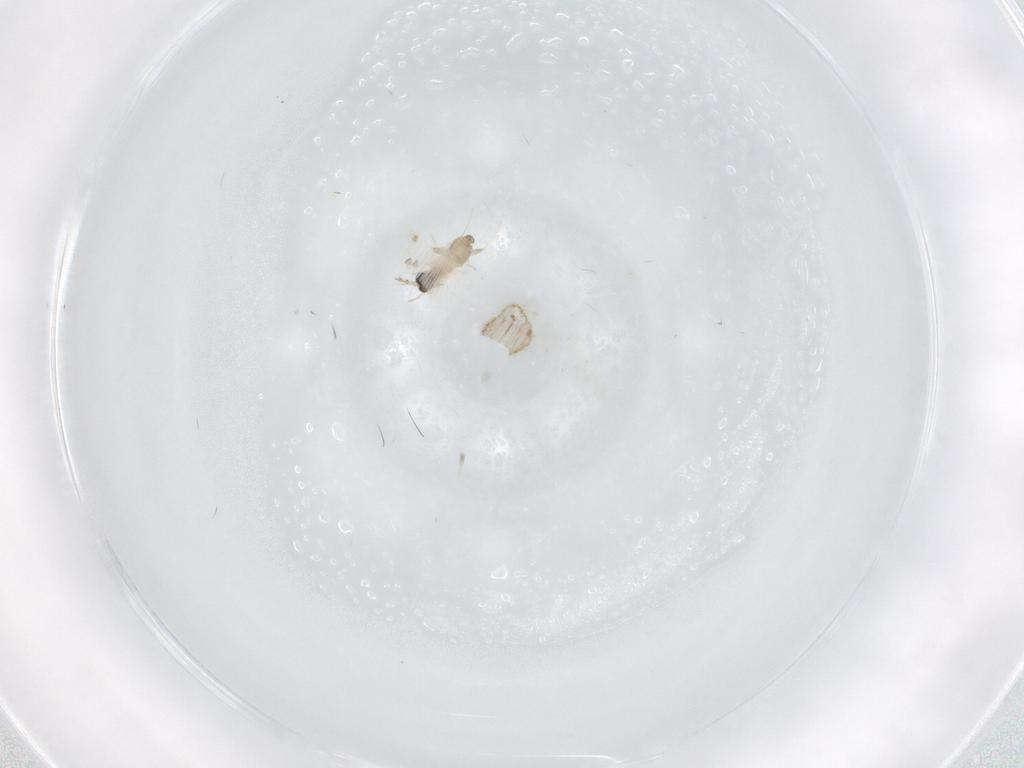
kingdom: Animalia
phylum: Arthropoda
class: Insecta
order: Diptera
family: Cecidomyiidae
